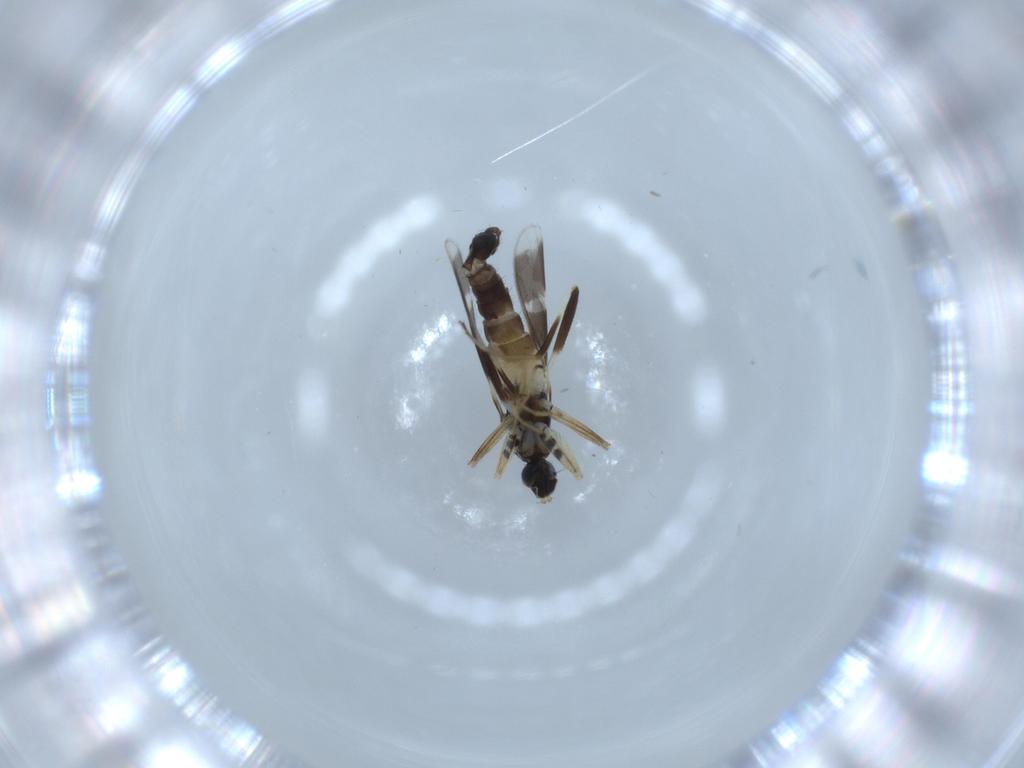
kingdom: Animalia
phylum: Arthropoda
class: Insecta
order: Diptera
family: Hybotidae
